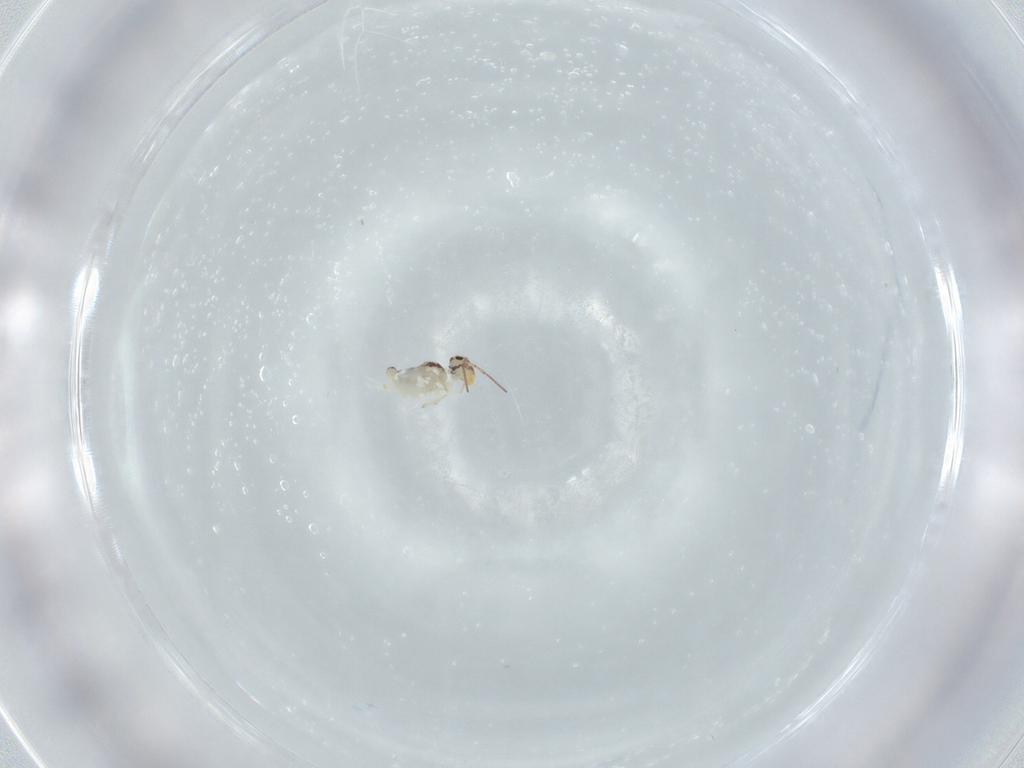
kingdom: Animalia
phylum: Arthropoda
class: Collembola
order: Symphypleona
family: Bourletiellidae
